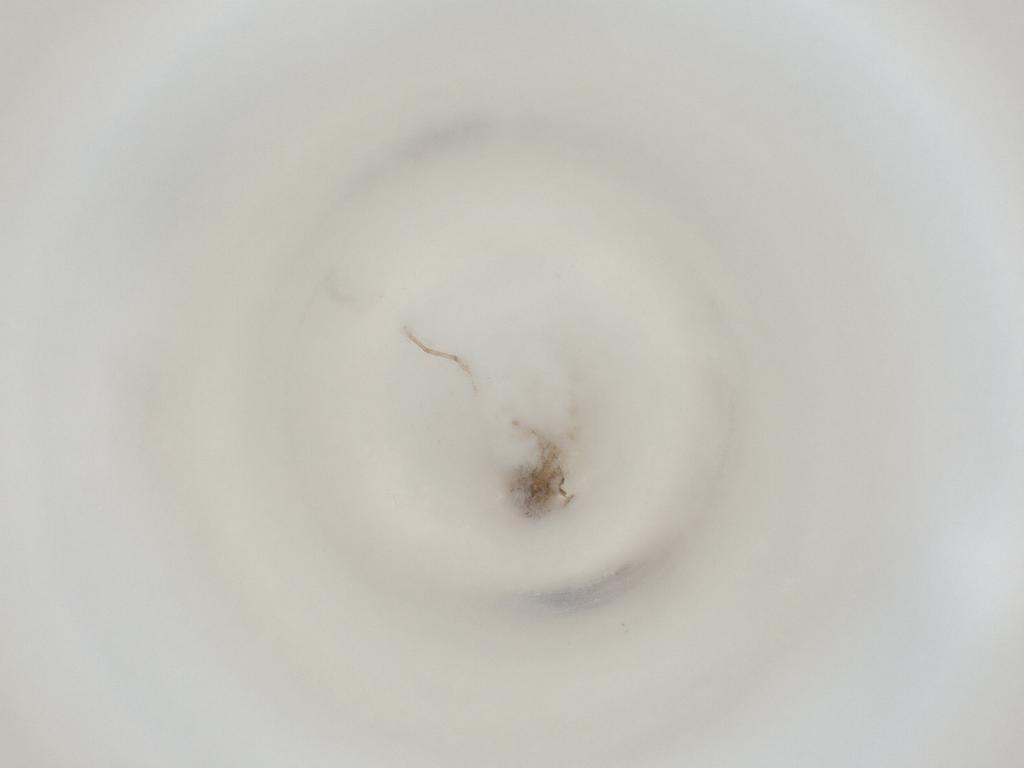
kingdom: Animalia
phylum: Arthropoda
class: Insecta
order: Diptera
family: Cecidomyiidae
